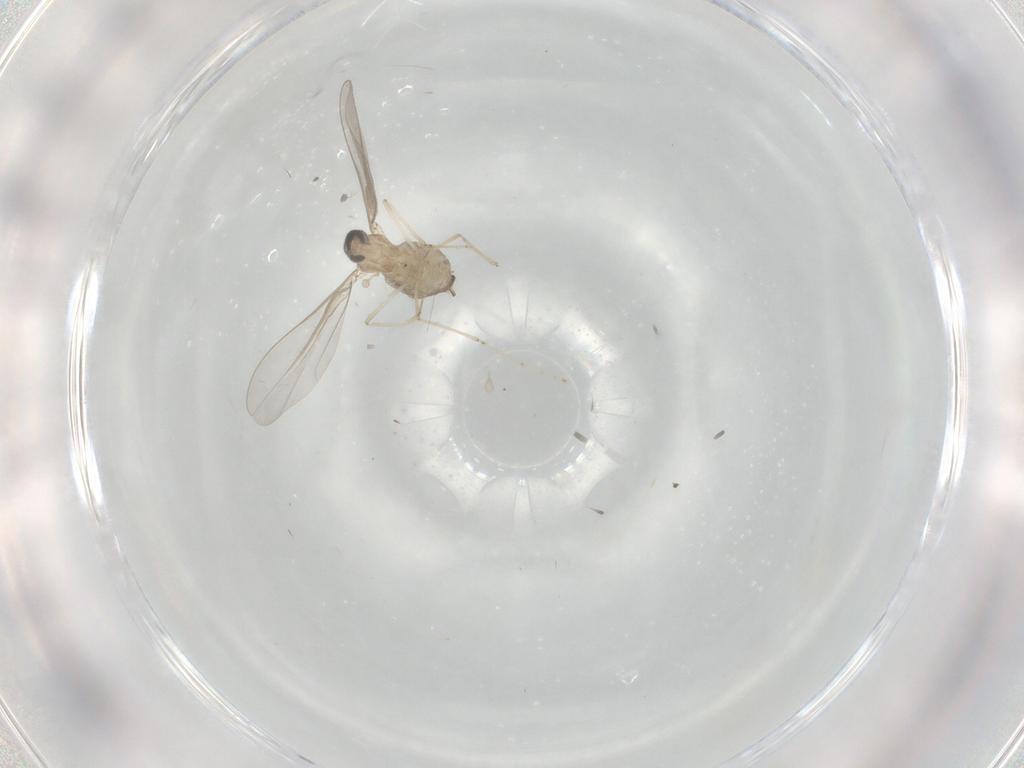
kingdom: Animalia
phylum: Arthropoda
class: Insecta
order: Diptera
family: Cecidomyiidae
